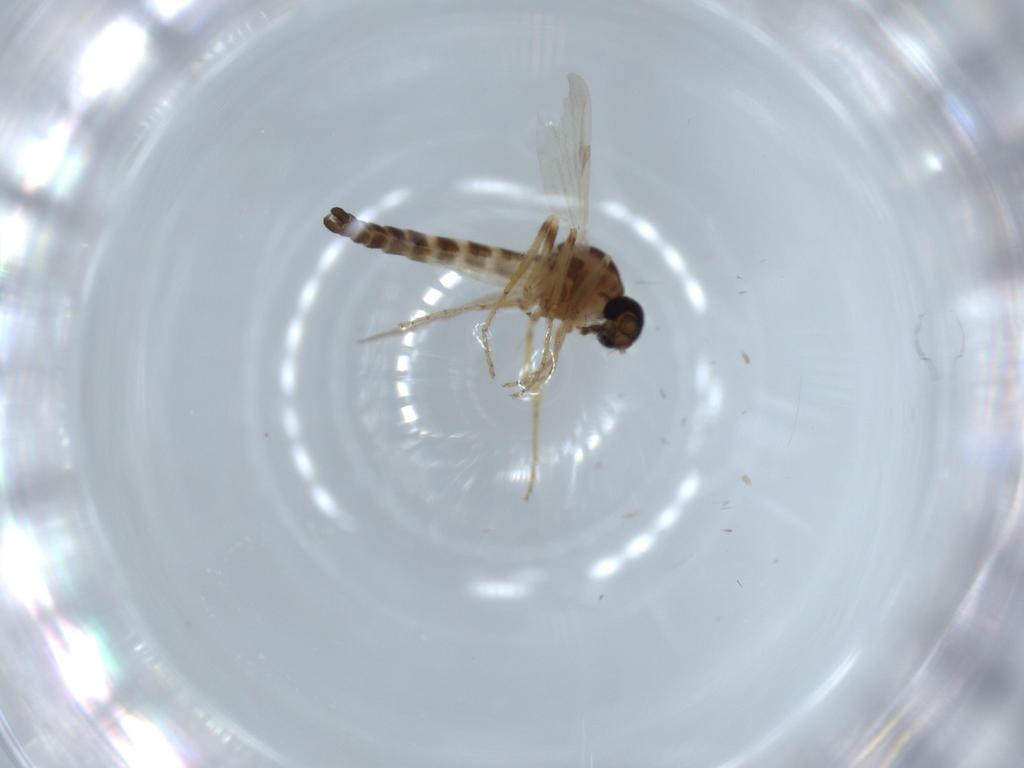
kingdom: Animalia
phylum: Arthropoda
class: Insecta
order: Diptera
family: Ceratopogonidae
